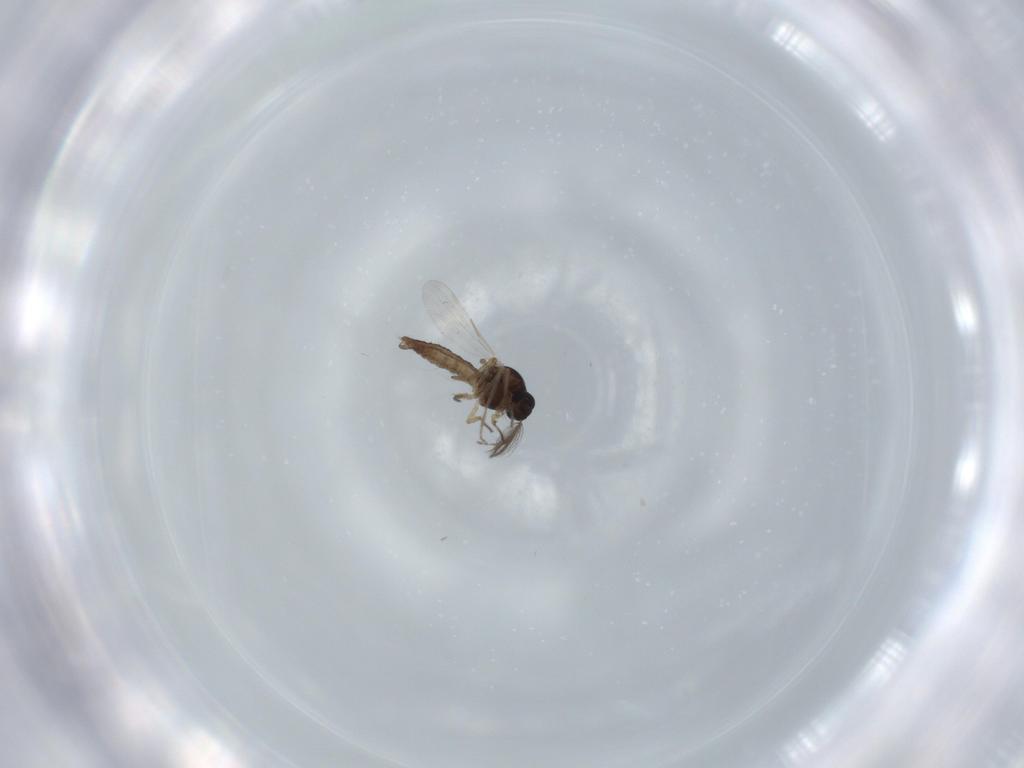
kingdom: Animalia
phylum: Arthropoda
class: Insecta
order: Diptera
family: Ceratopogonidae
